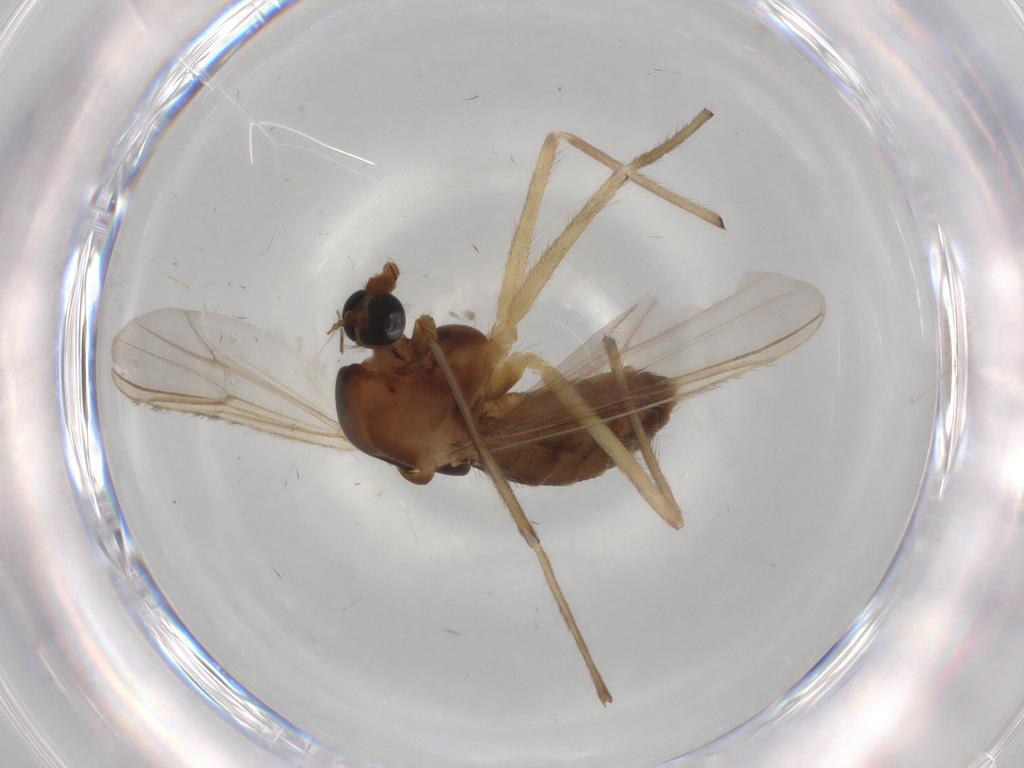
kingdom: Animalia
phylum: Arthropoda
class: Insecta
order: Diptera
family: Chironomidae
